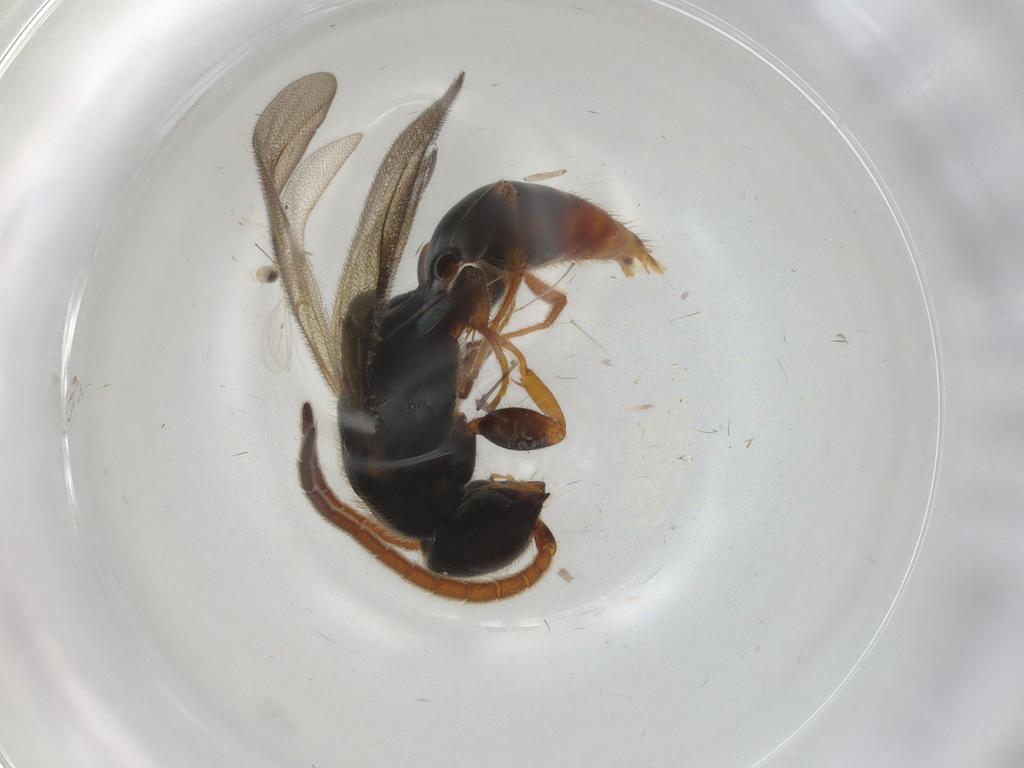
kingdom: Animalia
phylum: Arthropoda
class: Insecta
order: Hymenoptera
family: Bethylidae
